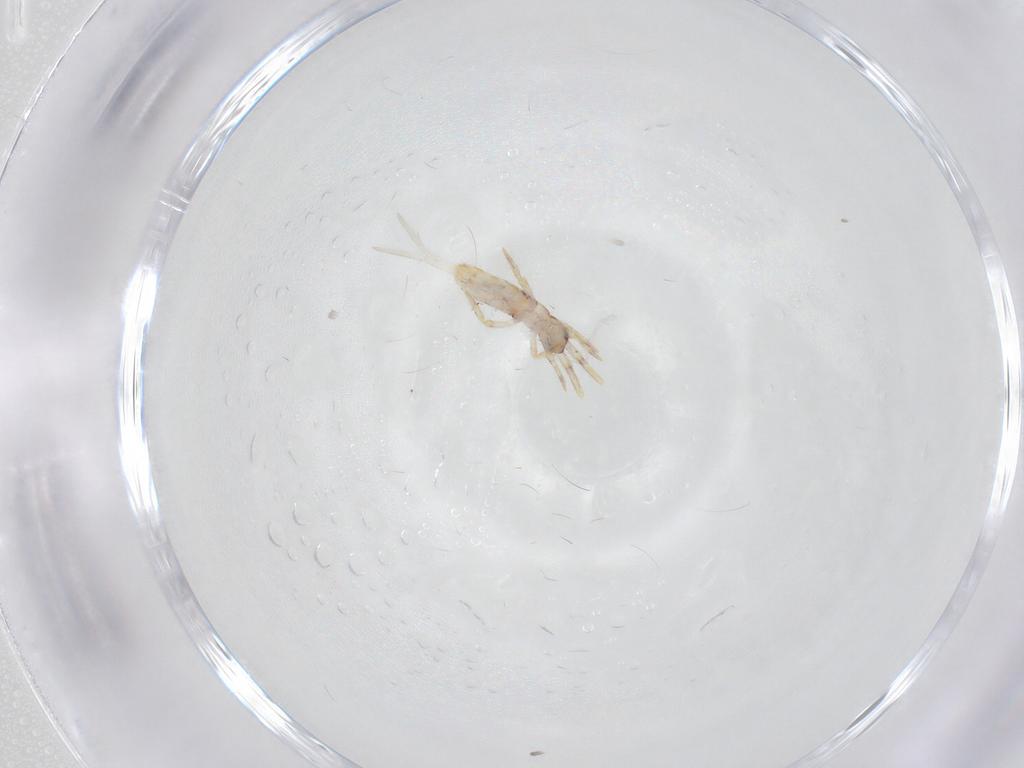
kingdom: Animalia
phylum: Arthropoda
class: Collembola
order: Entomobryomorpha
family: Entomobryidae
